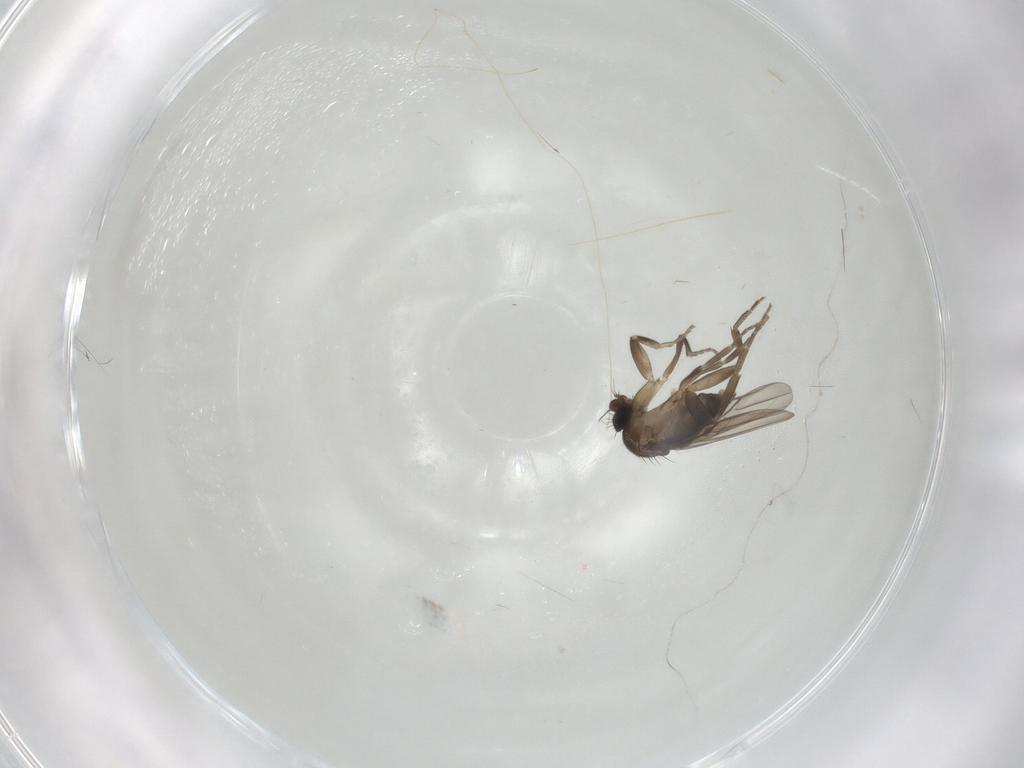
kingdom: Animalia
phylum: Arthropoda
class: Insecta
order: Diptera
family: Phoridae
